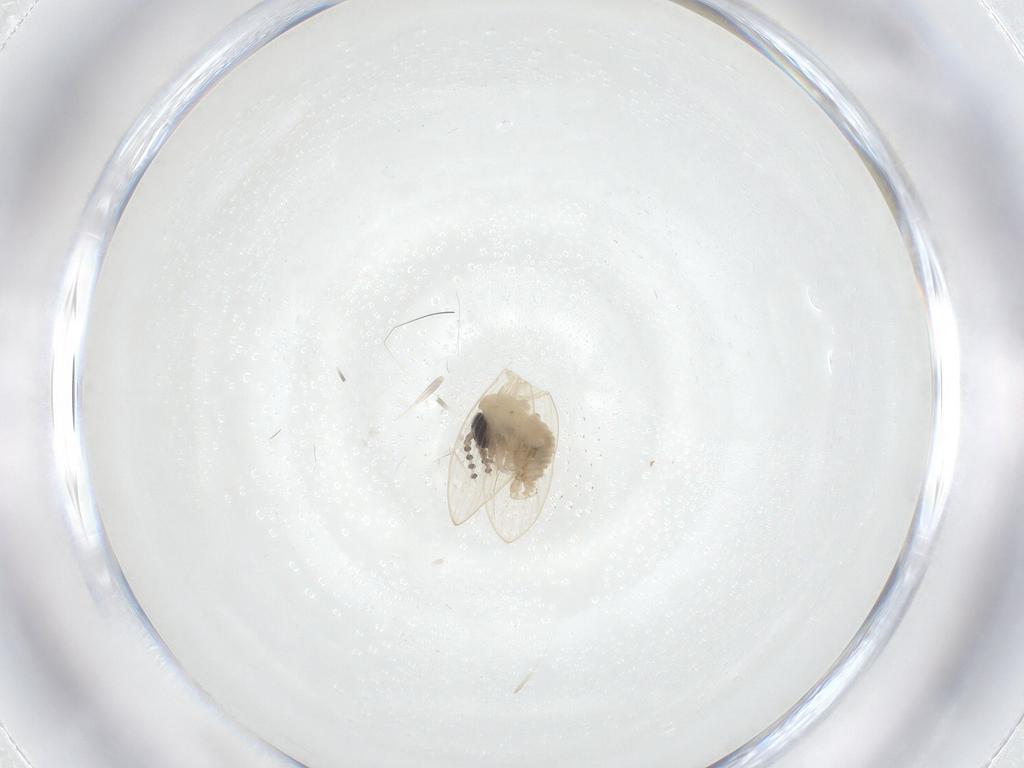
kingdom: Animalia
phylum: Arthropoda
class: Insecta
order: Diptera
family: Psychodidae
